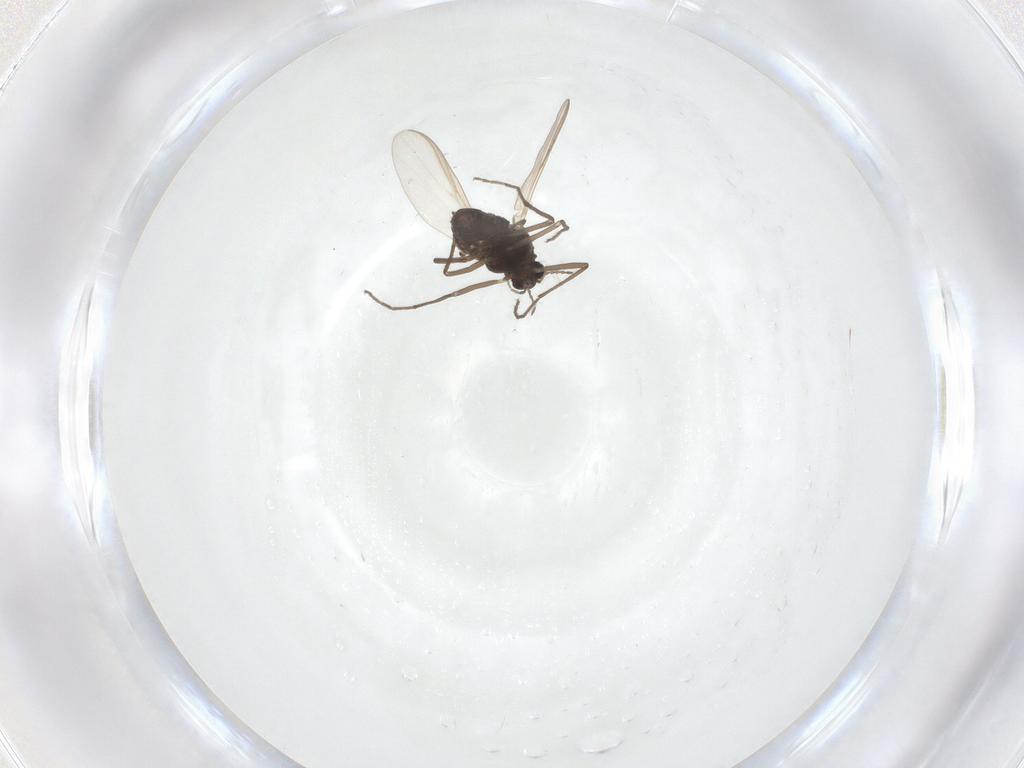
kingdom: Animalia
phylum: Arthropoda
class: Insecta
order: Diptera
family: Chironomidae
